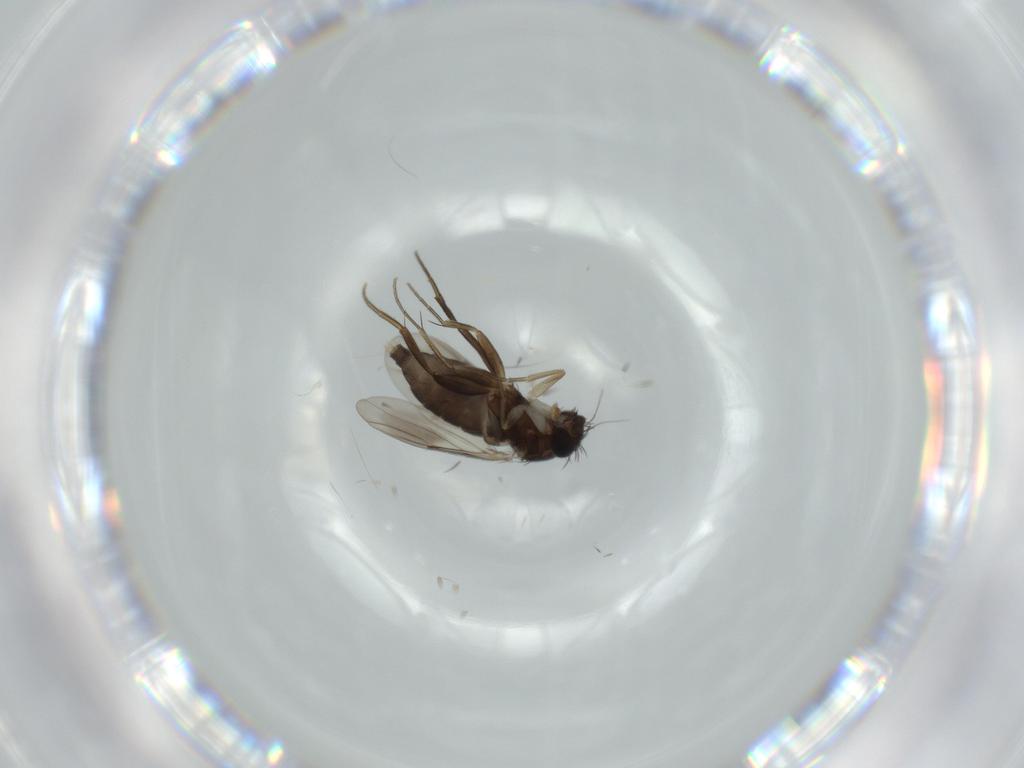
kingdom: Animalia
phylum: Arthropoda
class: Insecta
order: Diptera
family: Phoridae
